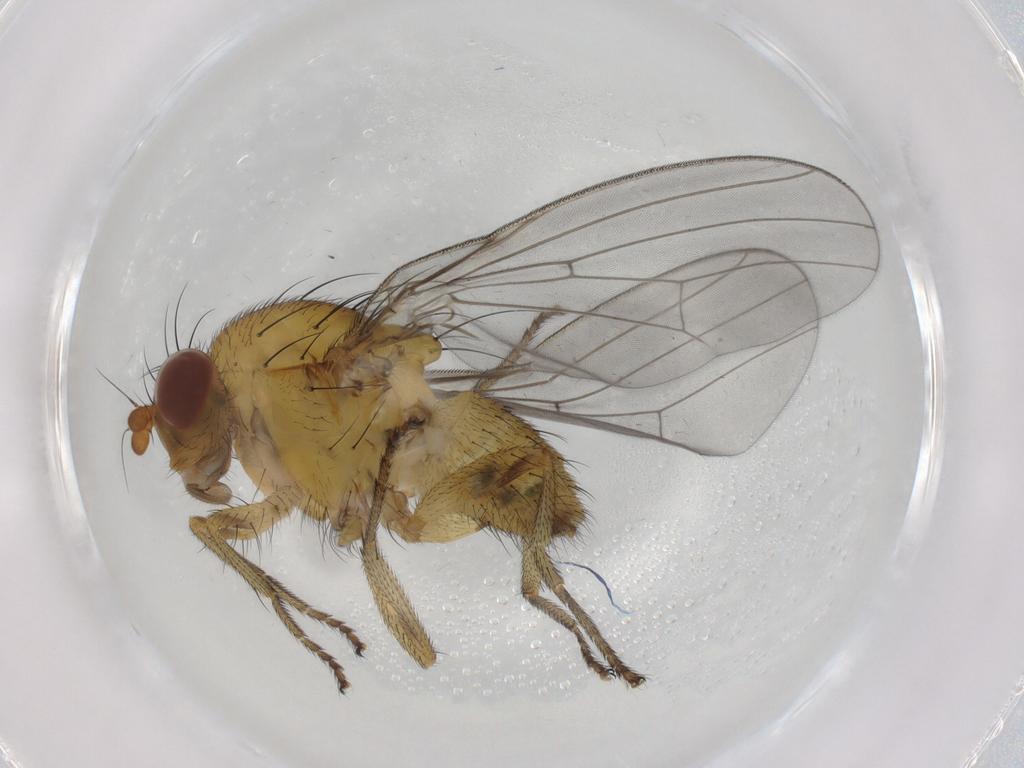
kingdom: Animalia
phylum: Arthropoda
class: Insecta
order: Diptera
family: Lauxaniidae
